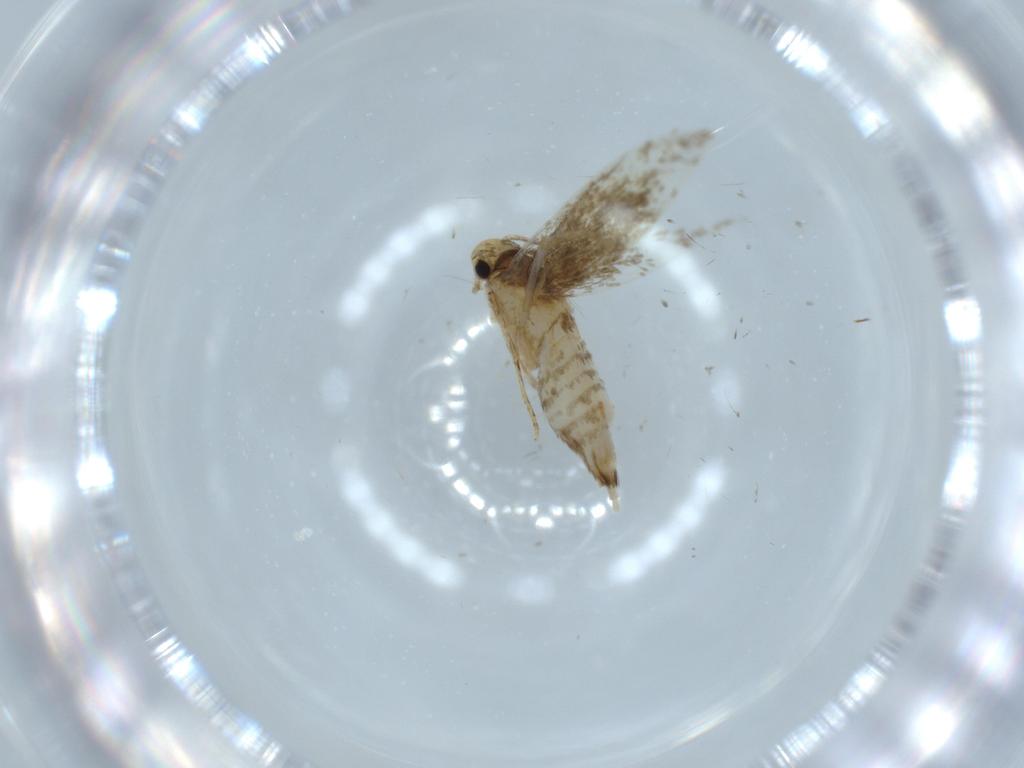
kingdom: Animalia
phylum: Arthropoda
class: Insecta
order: Lepidoptera
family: Tineidae
